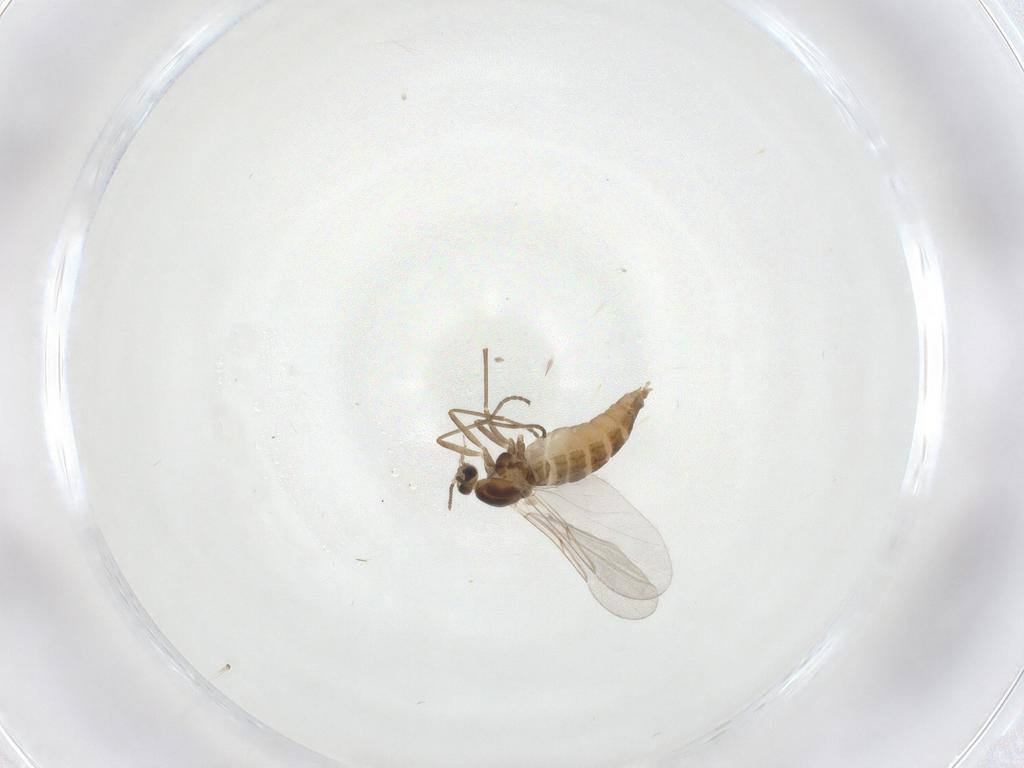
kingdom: Animalia
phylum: Arthropoda
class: Insecta
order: Diptera
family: Cecidomyiidae
